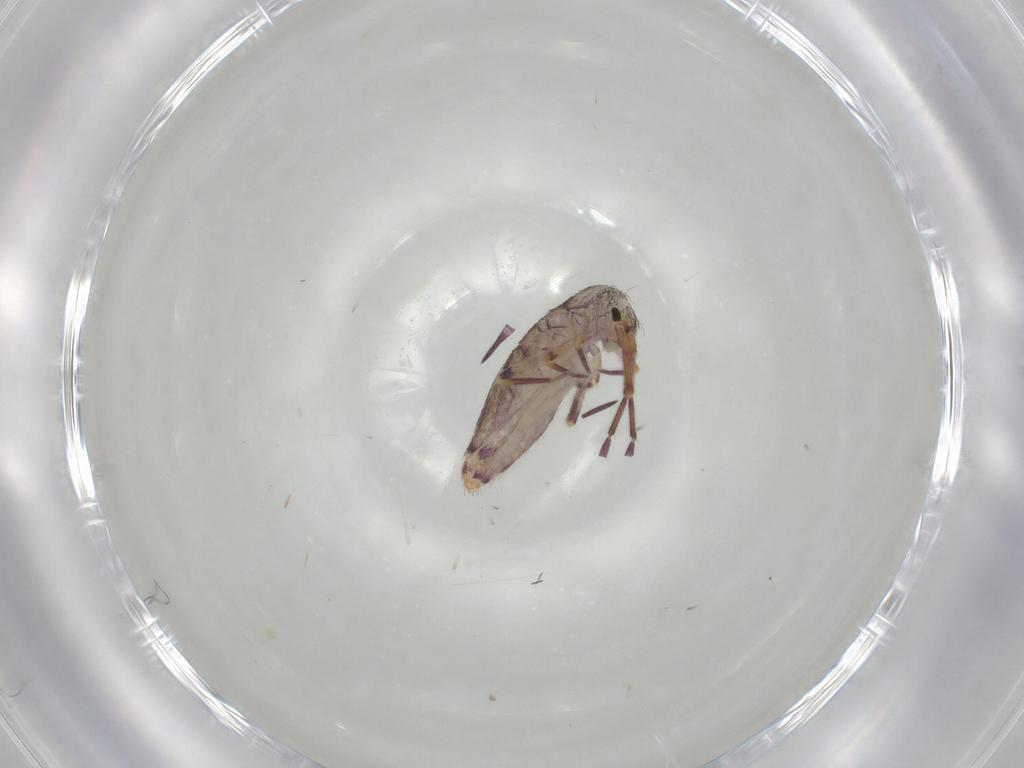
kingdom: Animalia
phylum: Arthropoda
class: Collembola
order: Entomobryomorpha
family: Entomobryidae
